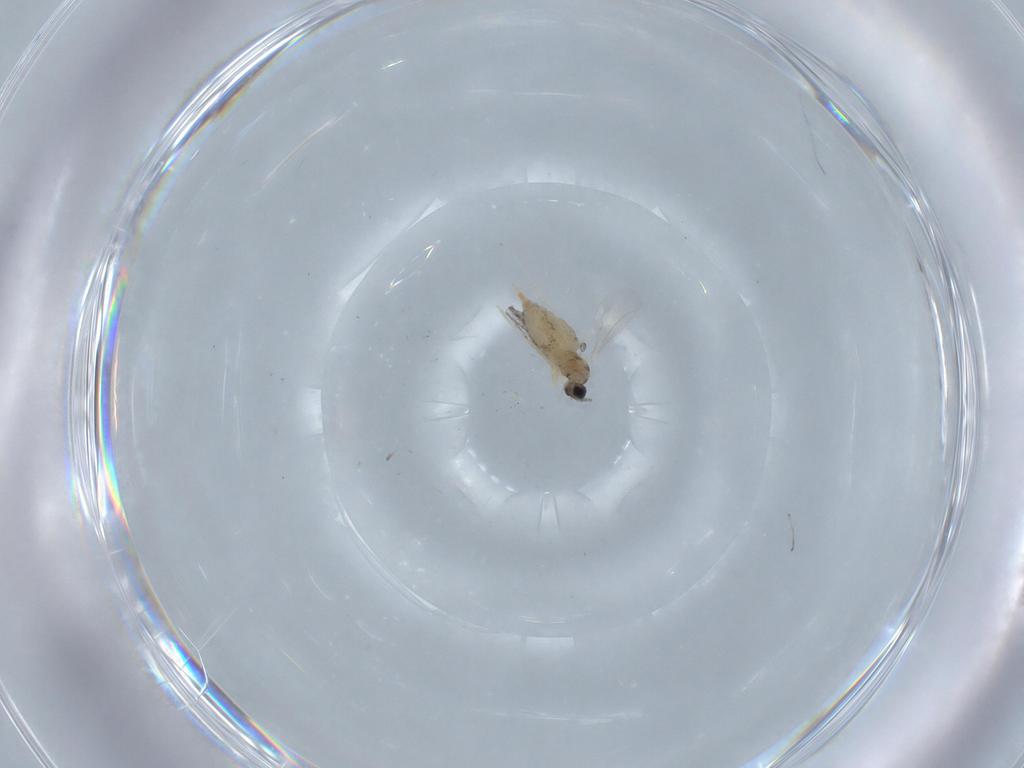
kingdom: Animalia
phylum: Arthropoda
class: Insecta
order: Diptera
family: Cecidomyiidae
